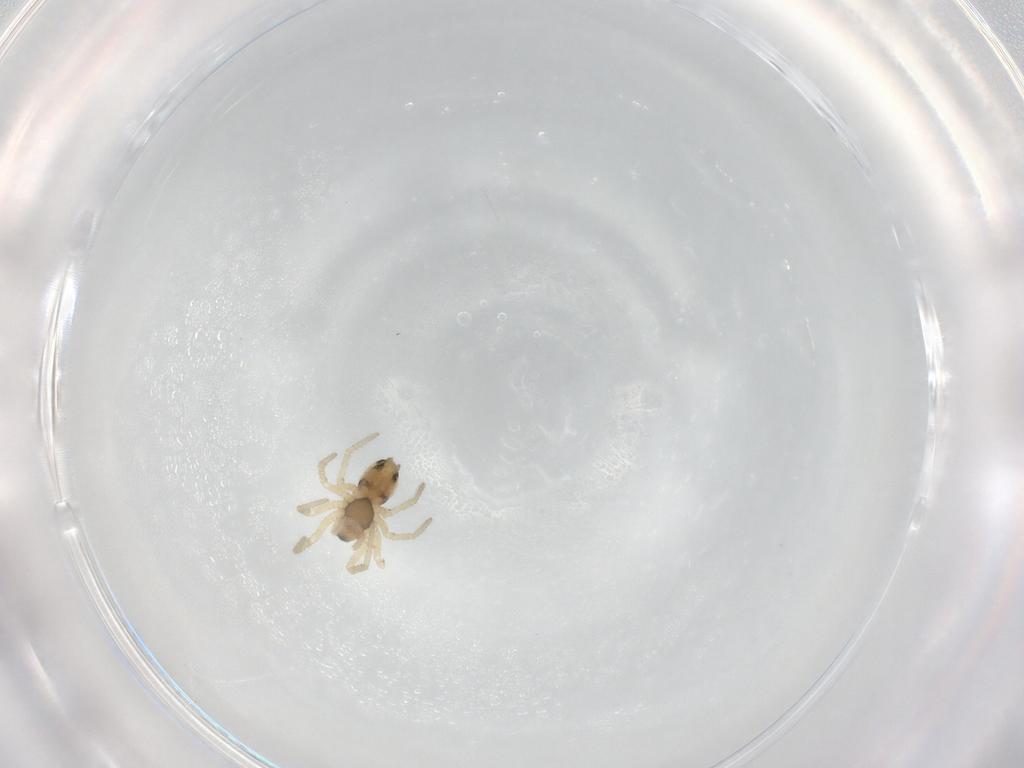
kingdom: Animalia
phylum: Arthropoda
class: Arachnida
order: Araneae
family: Linyphiidae
